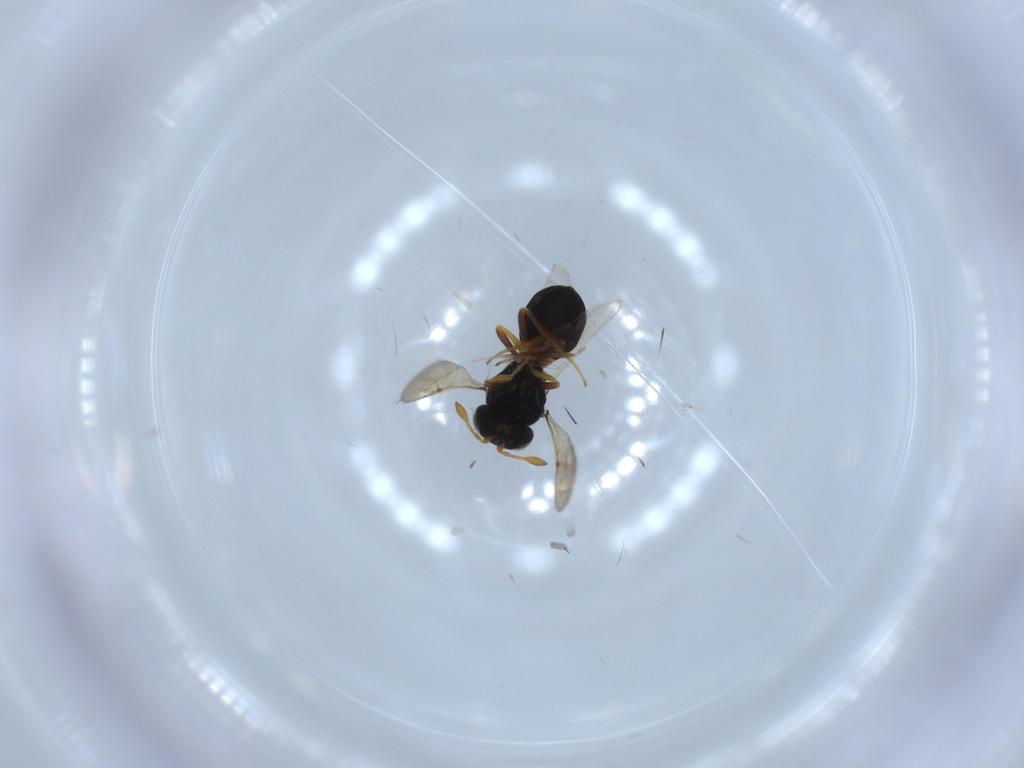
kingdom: Animalia
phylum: Arthropoda
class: Insecta
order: Hymenoptera
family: Scelionidae
